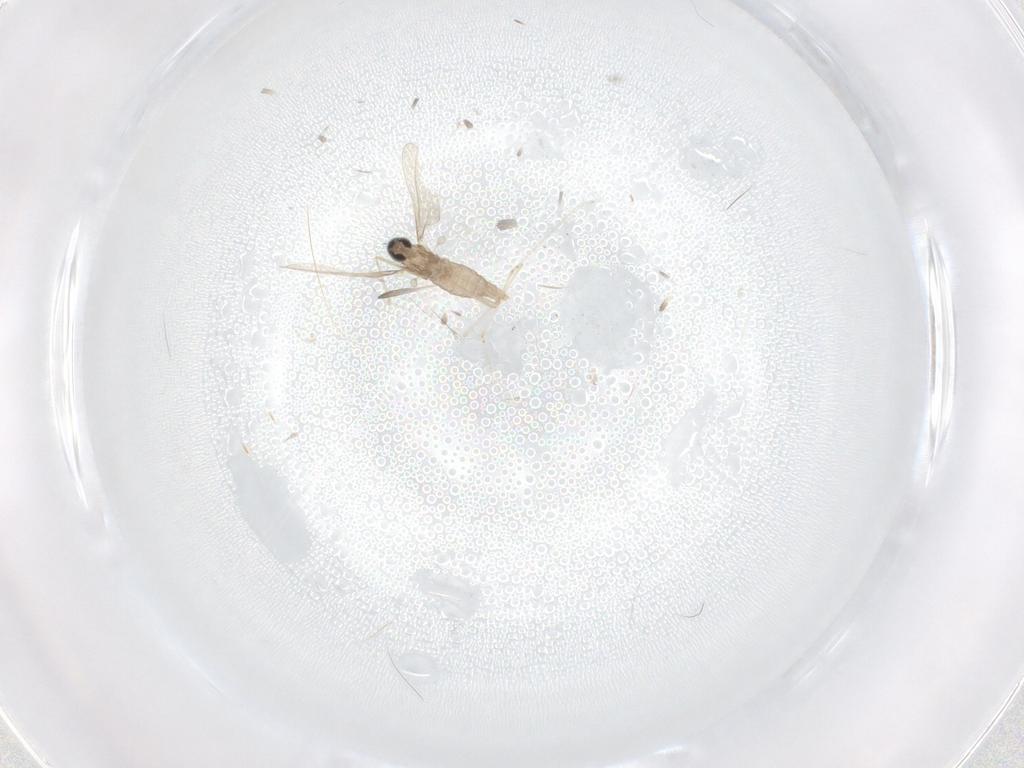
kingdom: Animalia
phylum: Arthropoda
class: Insecta
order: Diptera
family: Cecidomyiidae
